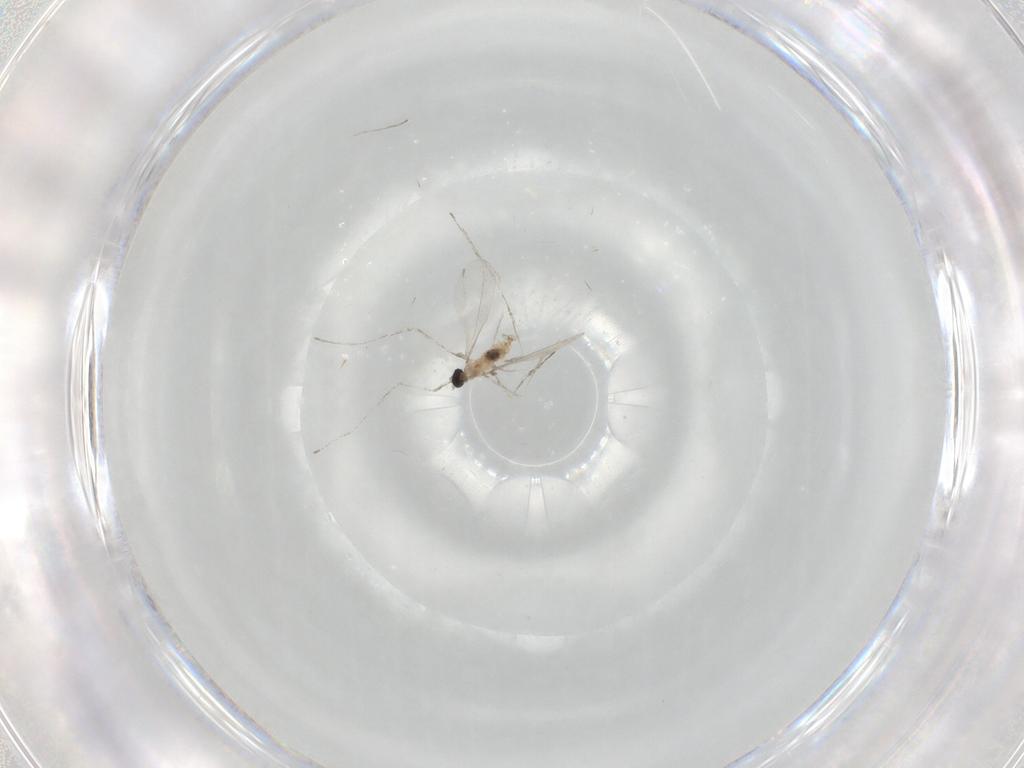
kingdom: Animalia
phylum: Arthropoda
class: Insecta
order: Diptera
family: Cecidomyiidae
